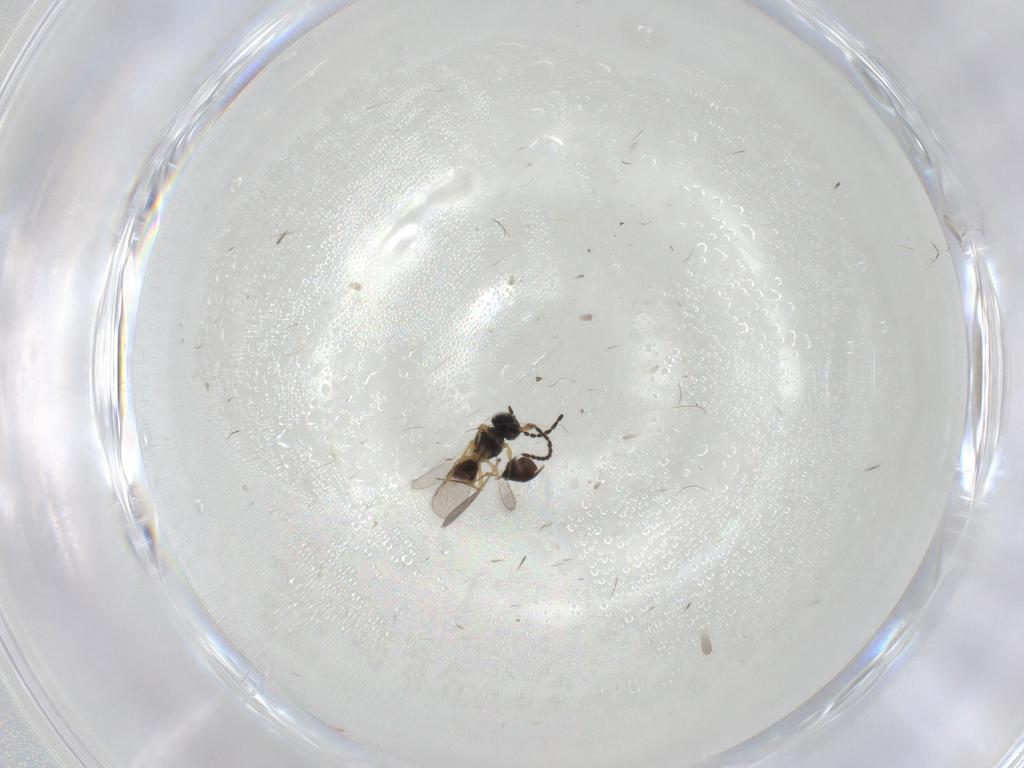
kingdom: Animalia
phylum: Arthropoda
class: Insecta
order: Hymenoptera
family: Scelionidae
